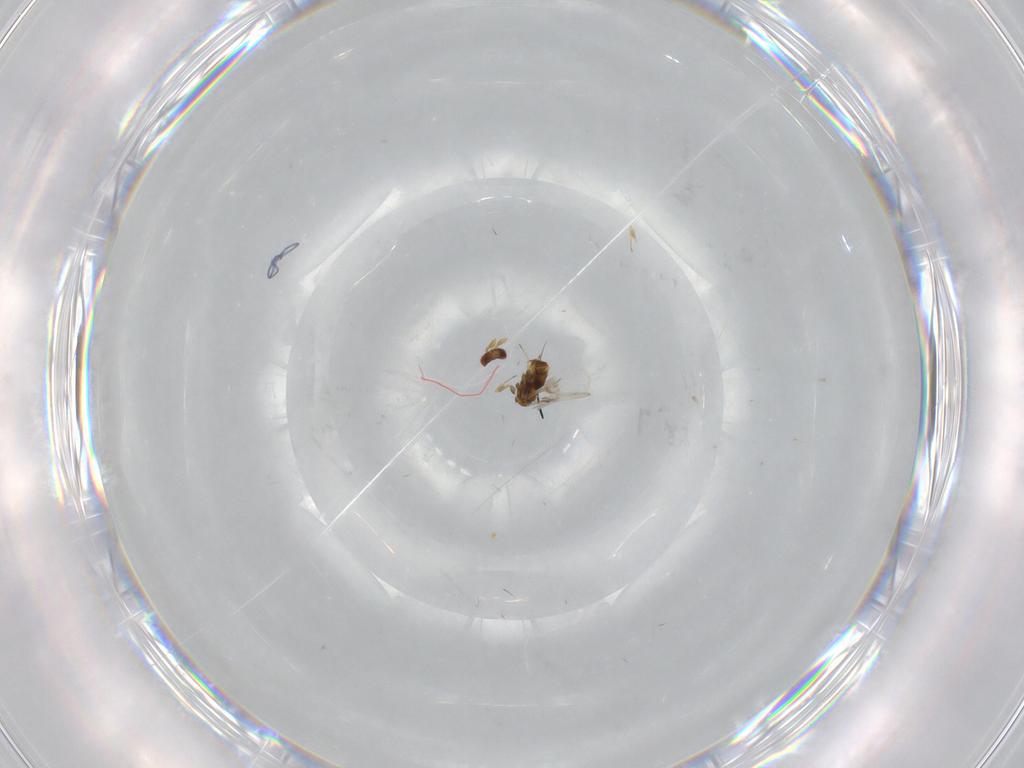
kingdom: Animalia
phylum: Arthropoda
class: Insecta
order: Hymenoptera
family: Trichogrammatidae
